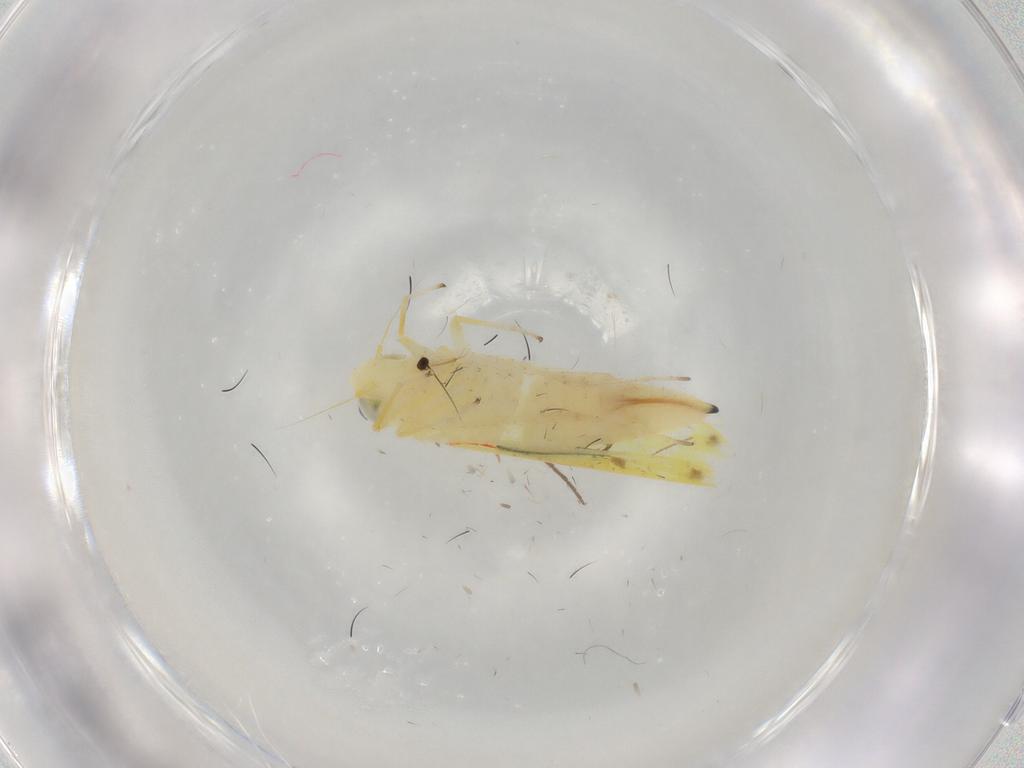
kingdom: Animalia
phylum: Arthropoda
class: Insecta
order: Hemiptera
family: Cicadellidae
